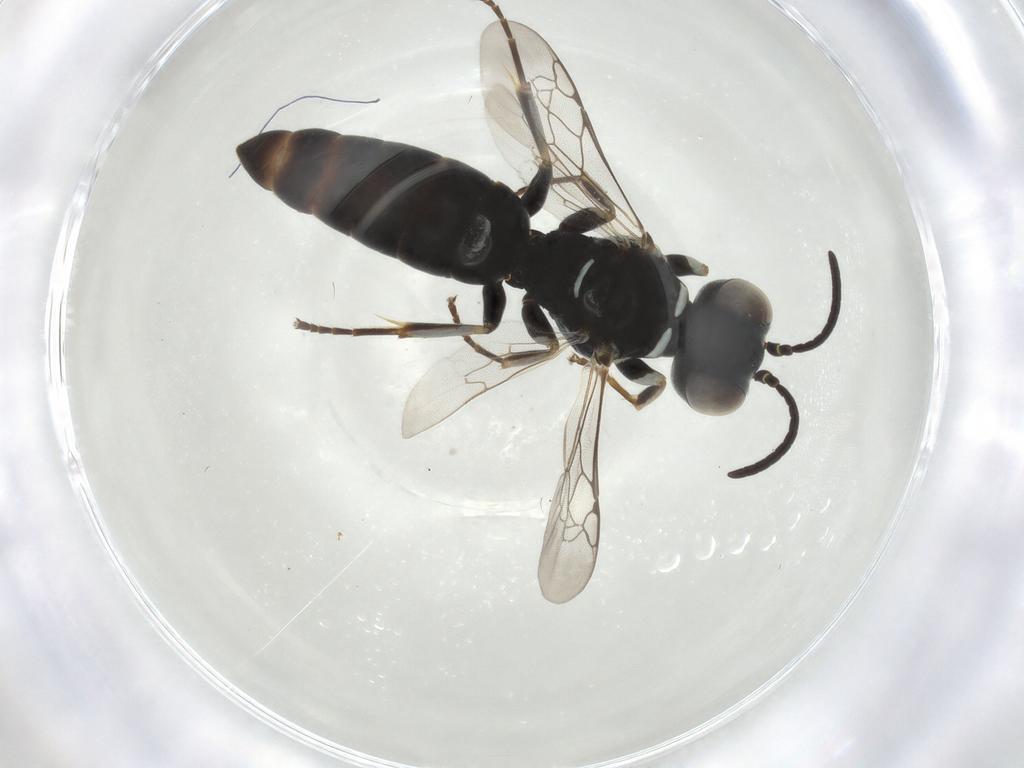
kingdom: Animalia
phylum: Arthropoda
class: Insecta
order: Hymenoptera
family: Crabronidae
